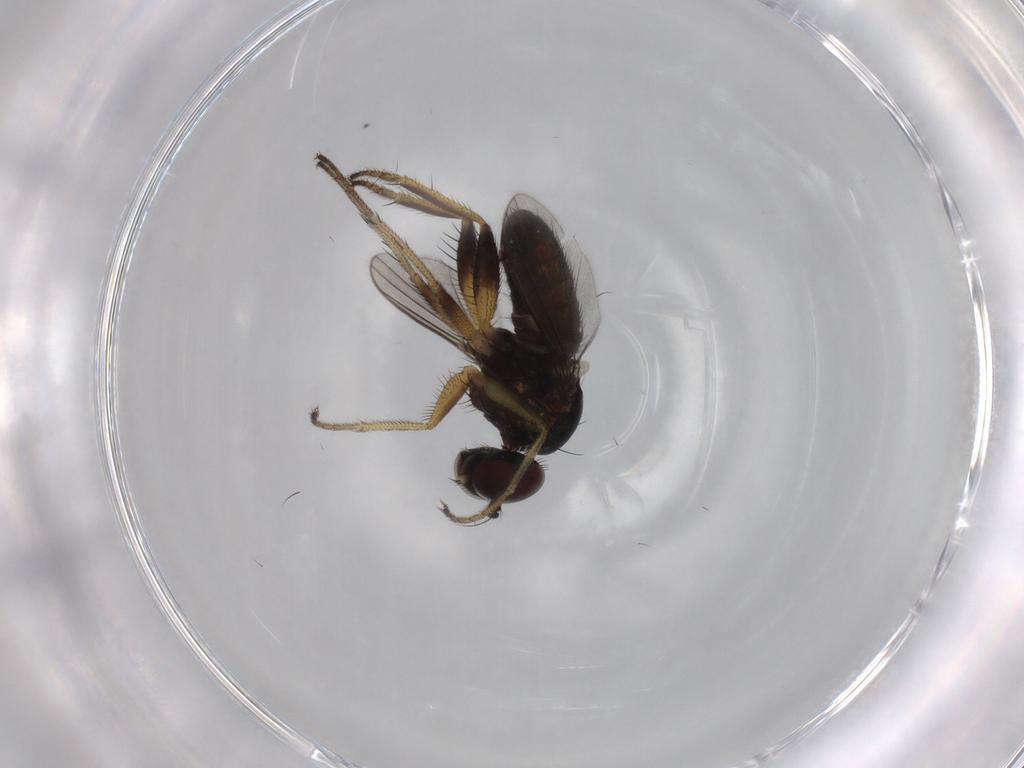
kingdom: Animalia
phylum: Arthropoda
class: Insecta
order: Diptera
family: Dolichopodidae
